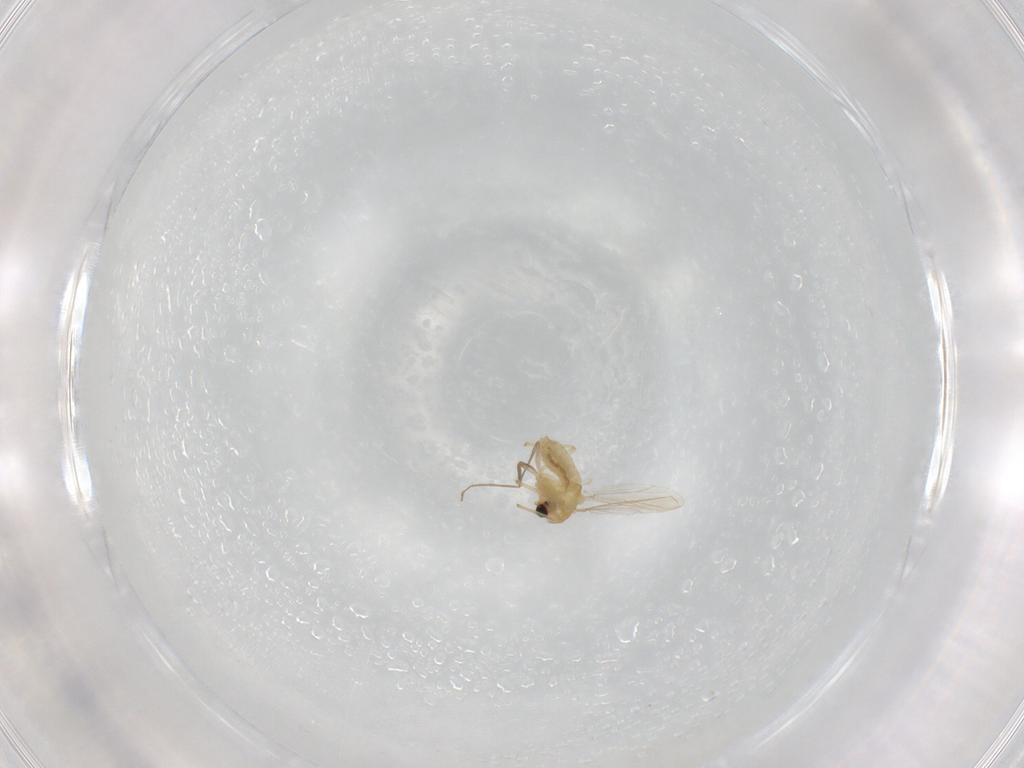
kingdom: Animalia
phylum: Arthropoda
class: Insecta
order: Diptera
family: Chironomidae
